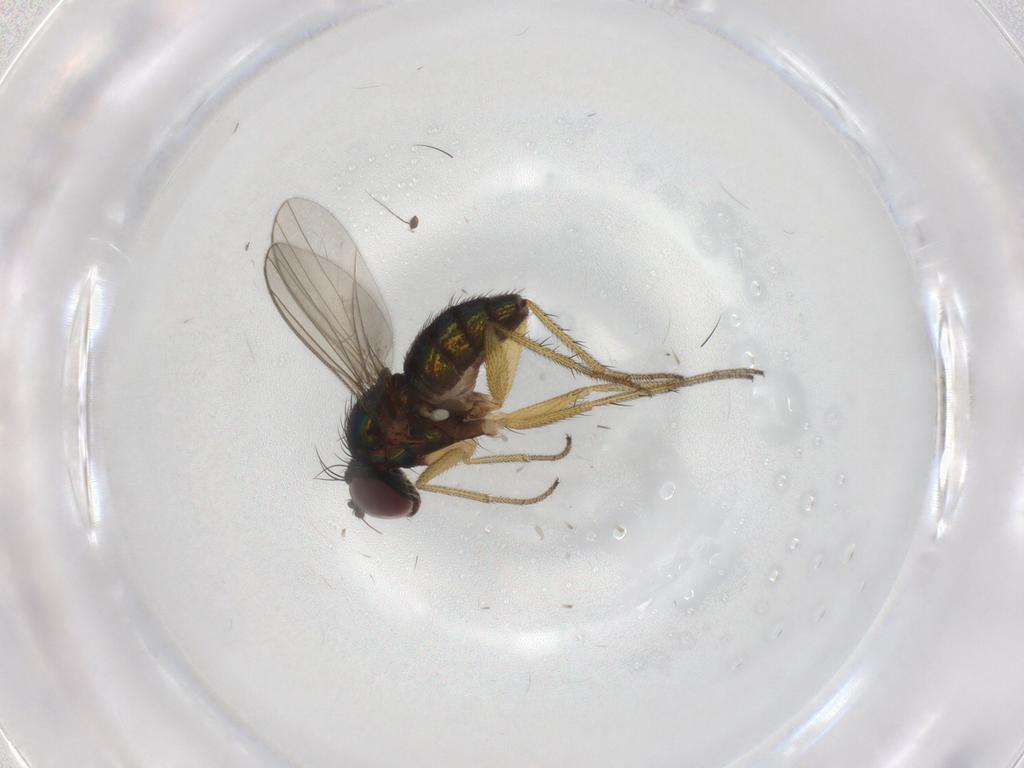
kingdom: Animalia
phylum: Arthropoda
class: Insecta
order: Diptera
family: Dolichopodidae
